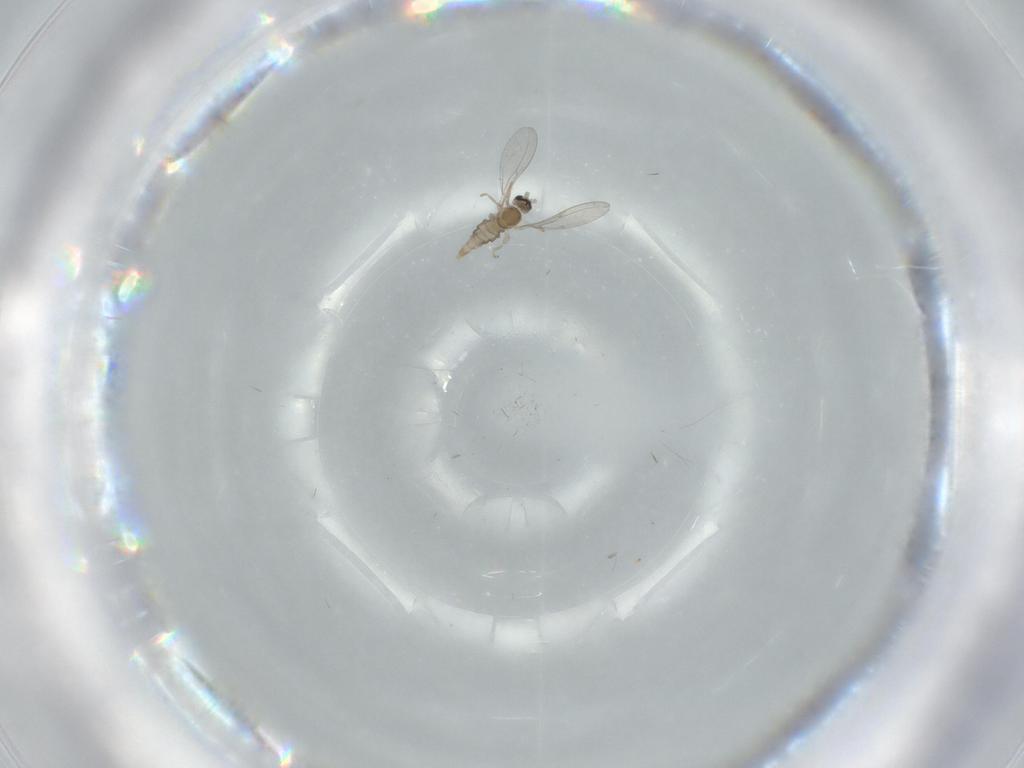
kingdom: Animalia
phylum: Arthropoda
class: Insecta
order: Diptera
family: Cecidomyiidae
